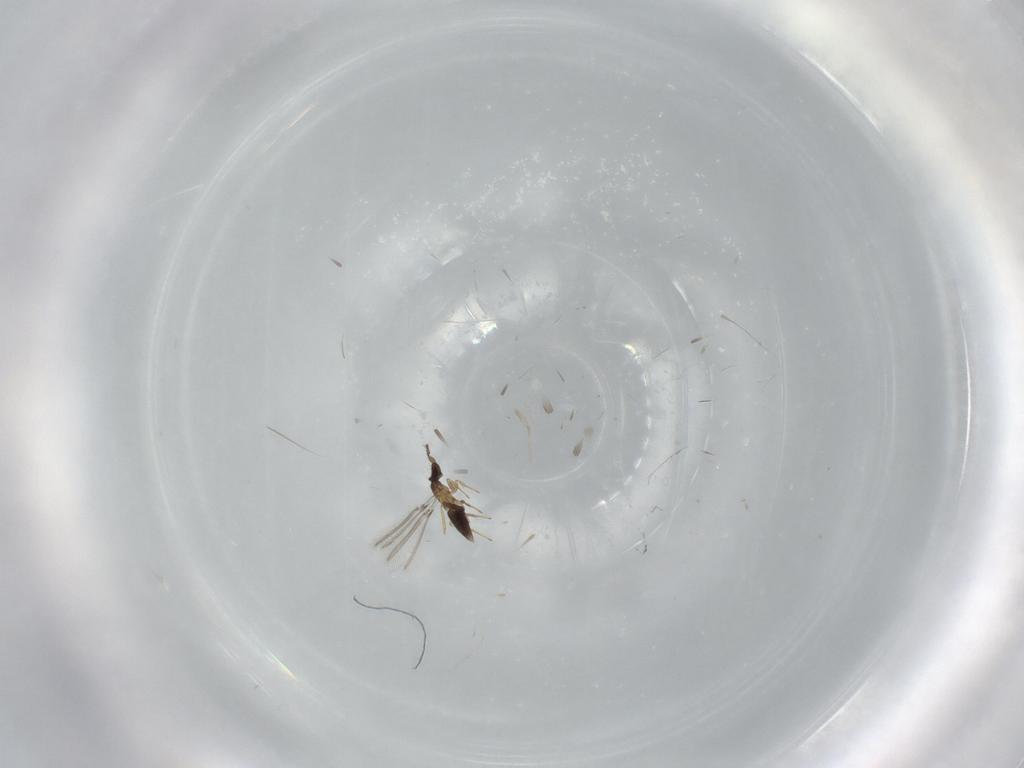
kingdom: Animalia
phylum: Arthropoda
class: Insecta
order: Hymenoptera
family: Mymaridae
